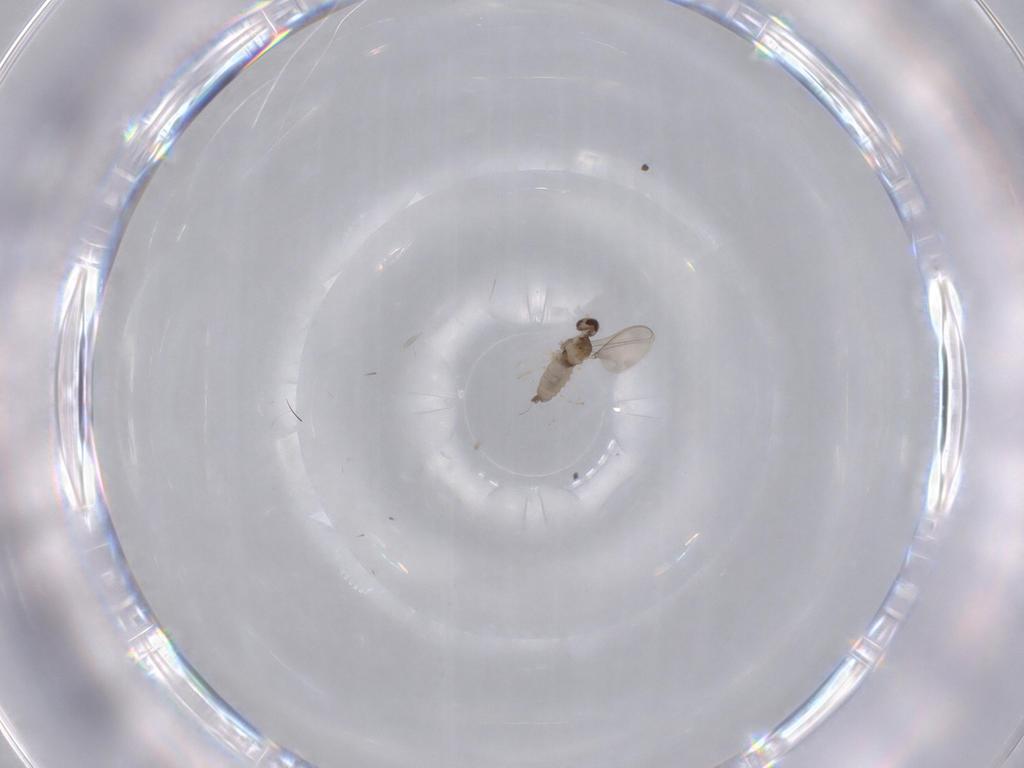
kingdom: Animalia
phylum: Arthropoda
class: Insecta
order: Diptera
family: Cecidomyiidae
